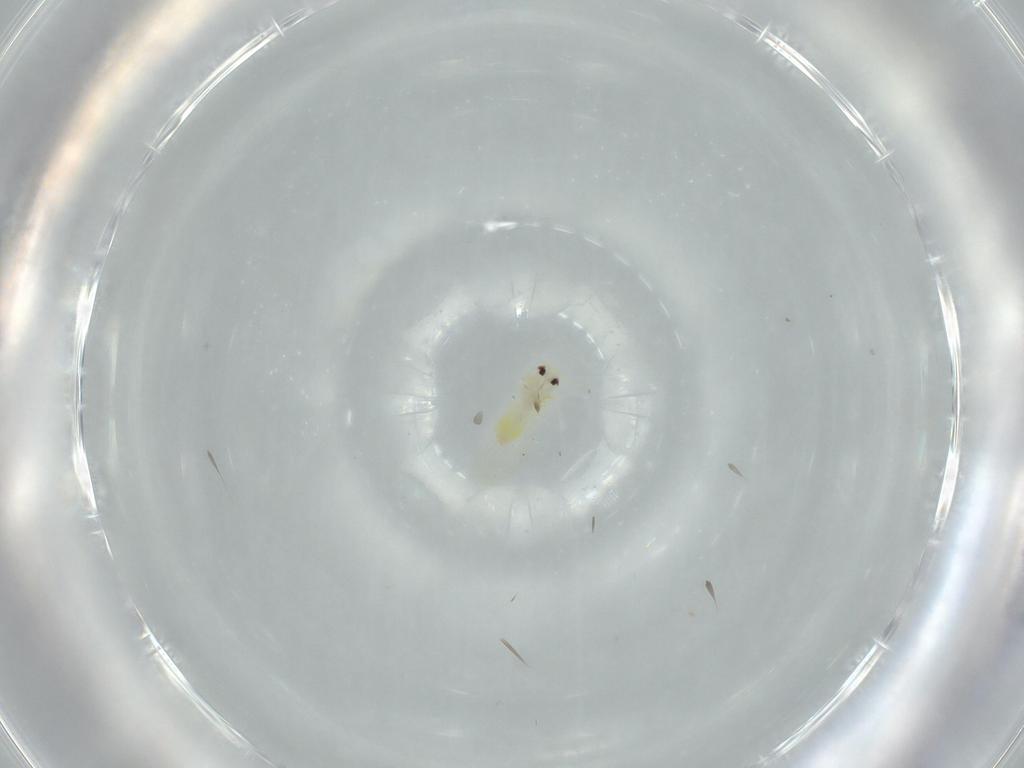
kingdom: Animalia
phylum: Arthropoda
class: Insecta
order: Hemiptera
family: Aleyrodidae
